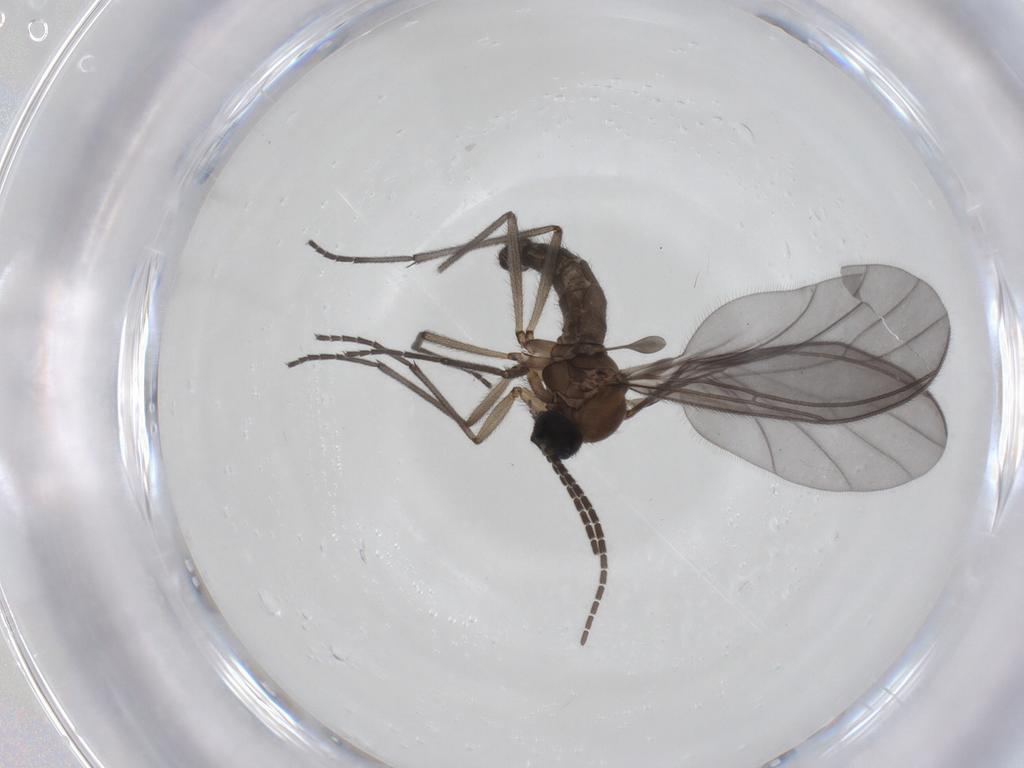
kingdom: Animalia
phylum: Arthropoda
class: Insecta
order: Diptera
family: Sciaridae
